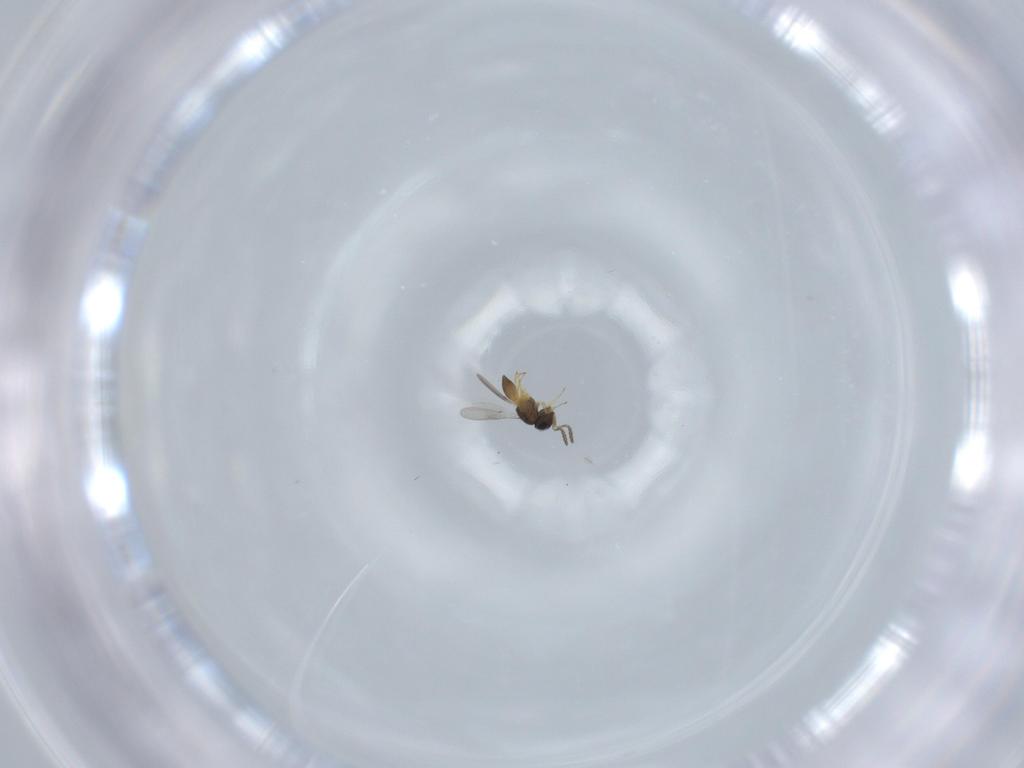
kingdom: Animalia
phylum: Arthropoda
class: Insecta
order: Hymenoptera
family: Scelionidae
